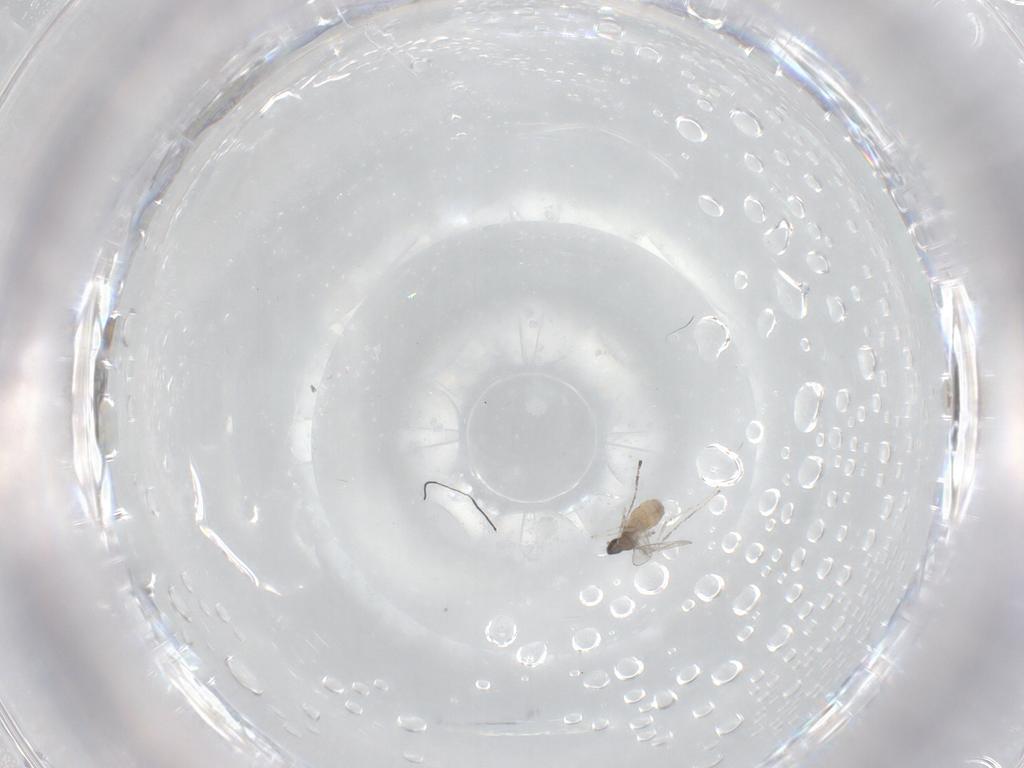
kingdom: Animalia
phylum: Arthropoda
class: Insecta
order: Diptera
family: Cecidomyiidae
